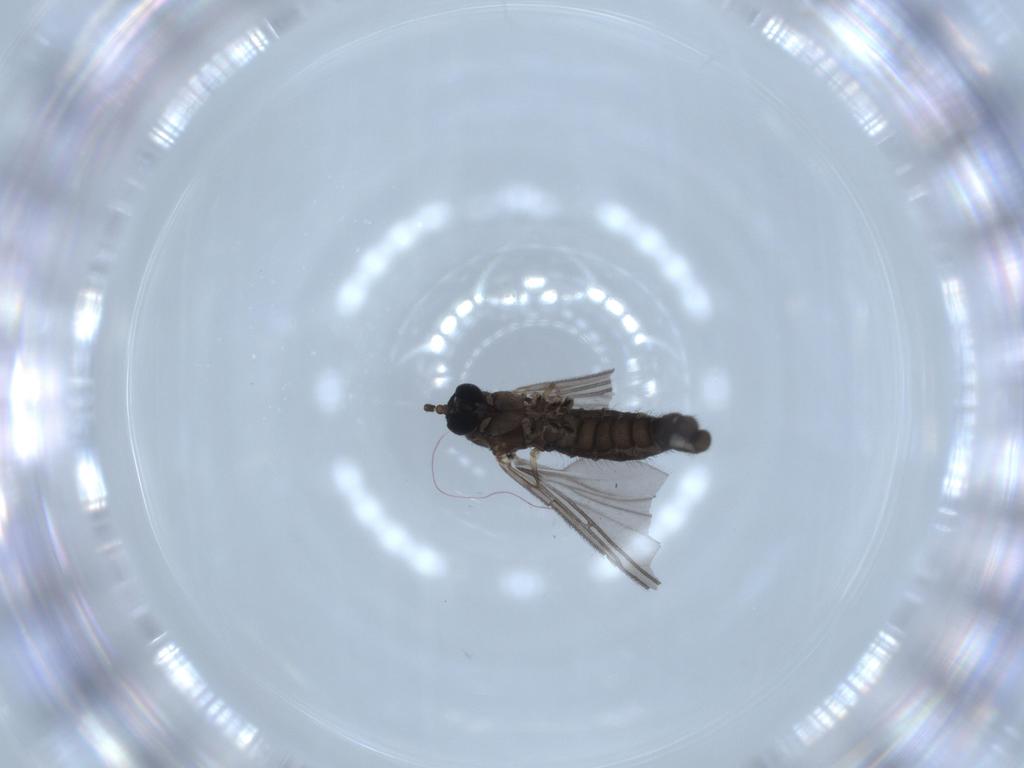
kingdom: Animalia
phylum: Arthropoda
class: Insecta
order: Diptera
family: Sciaridae
